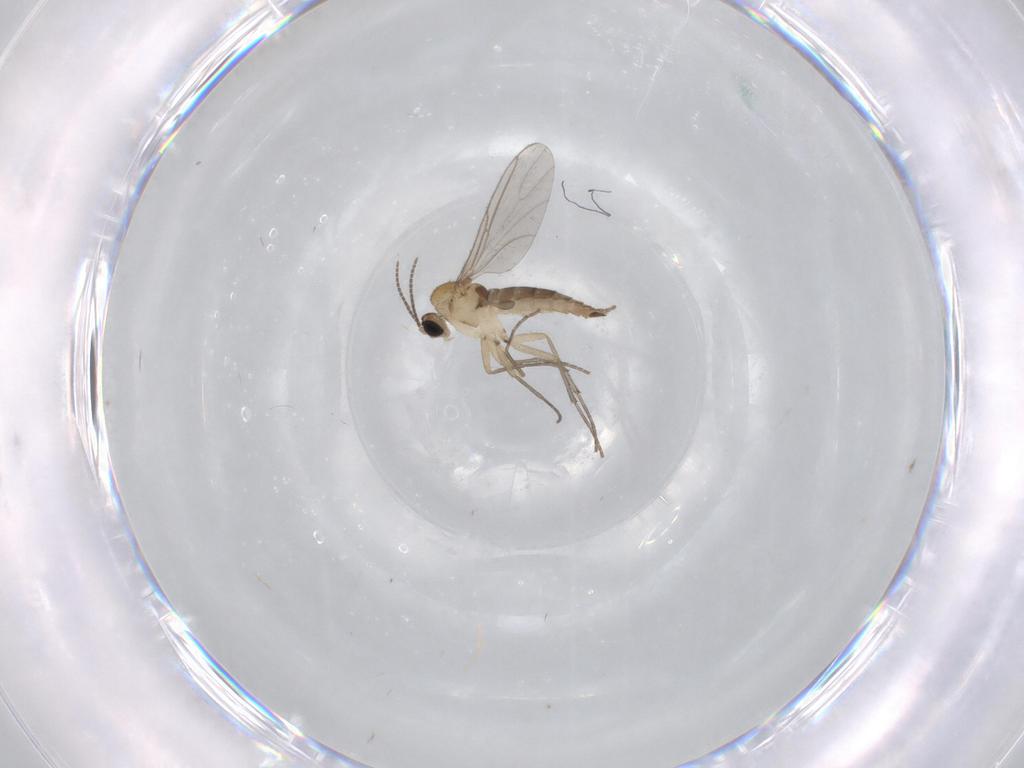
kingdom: Animalia
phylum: Arthropoda
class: Insecta
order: Diptera
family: Sciaridae
